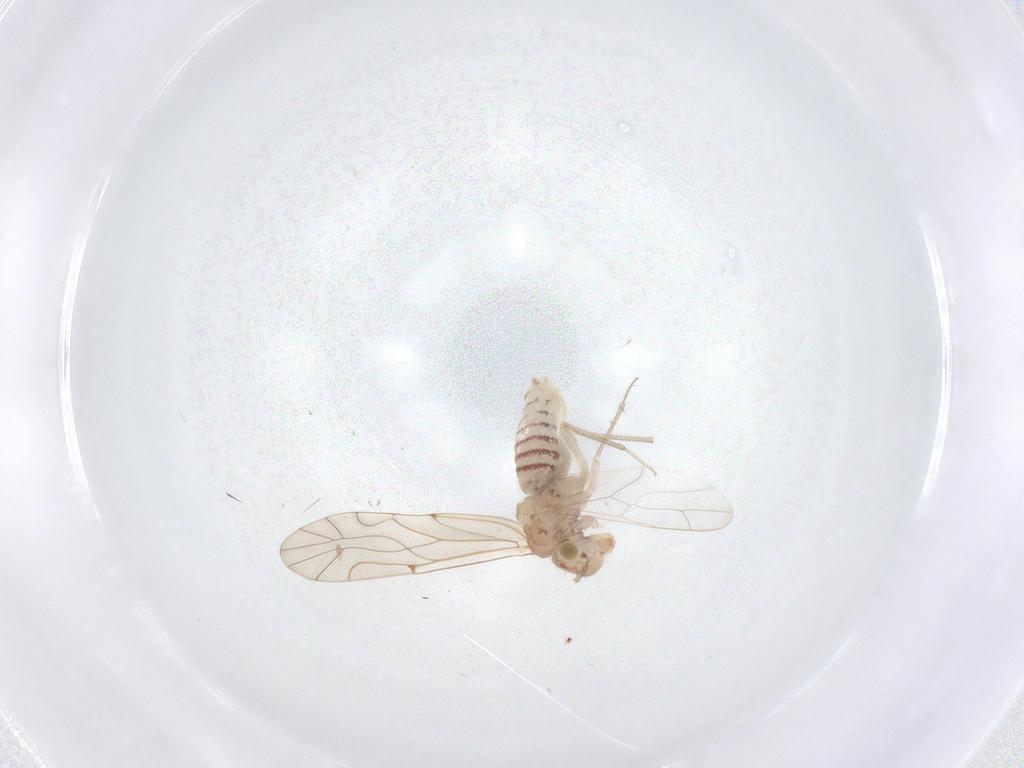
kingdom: Animalia
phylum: Arthropoda
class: Insecta
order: Psocodea
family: Lachesillidae
